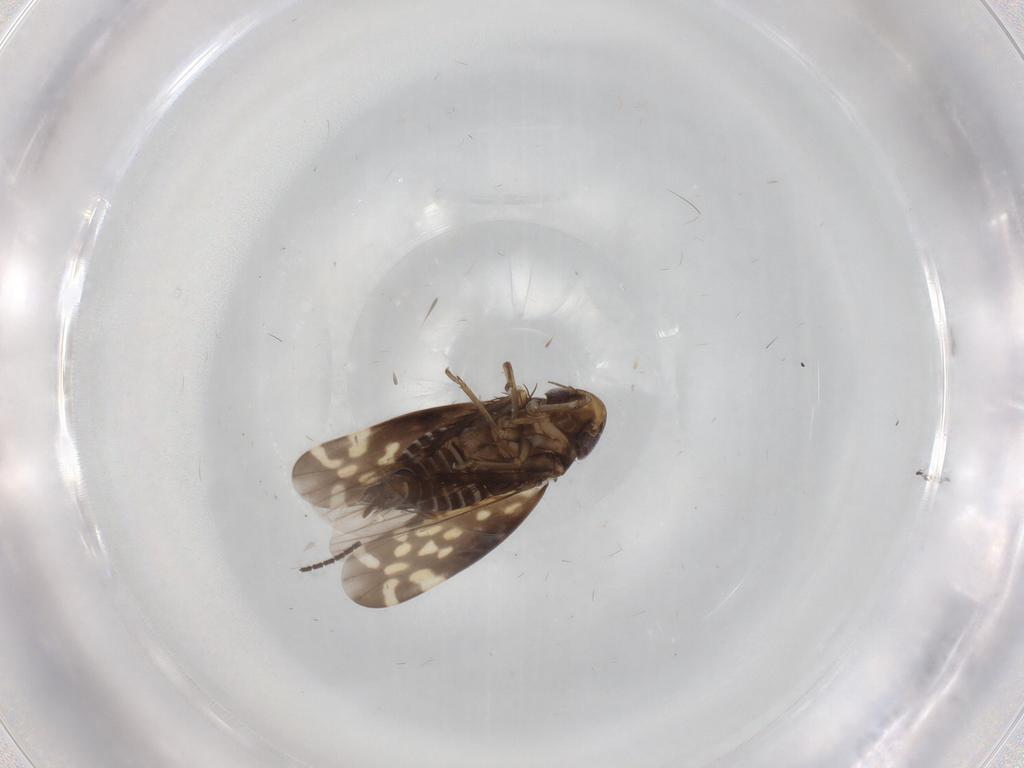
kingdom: Animalia
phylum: Arthropoda
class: Insecta
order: Hemiptera
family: Cicadellidae
